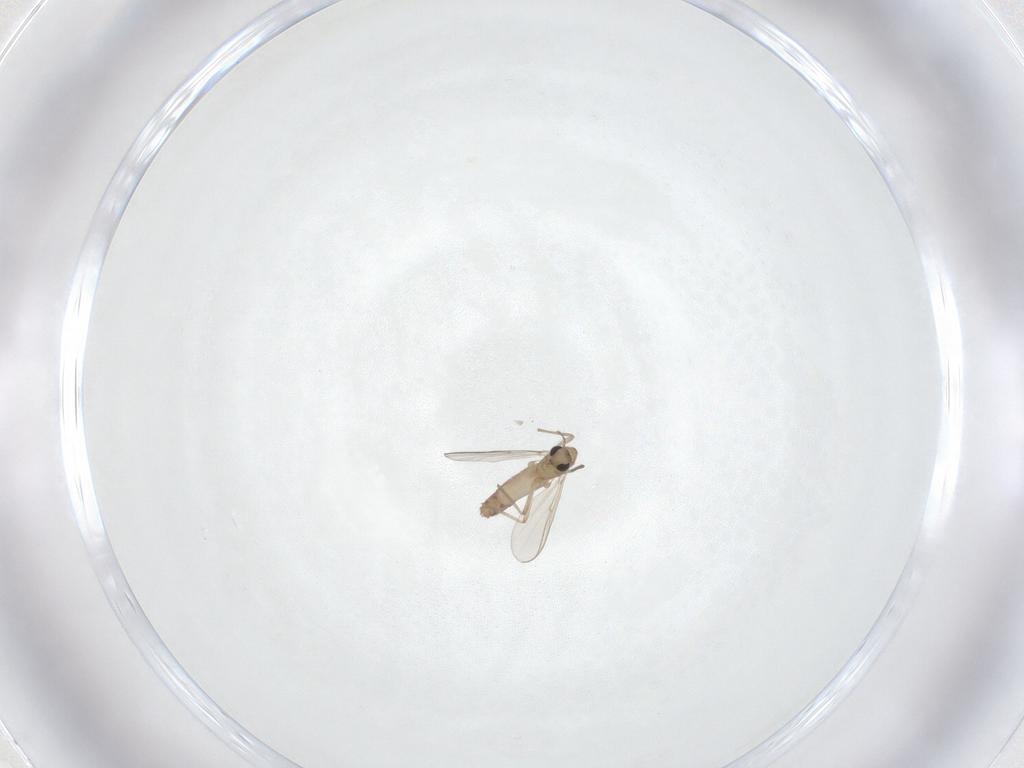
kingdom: Animalia
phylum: Arthropoda
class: Insecta
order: Diptera
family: Chironomidae
